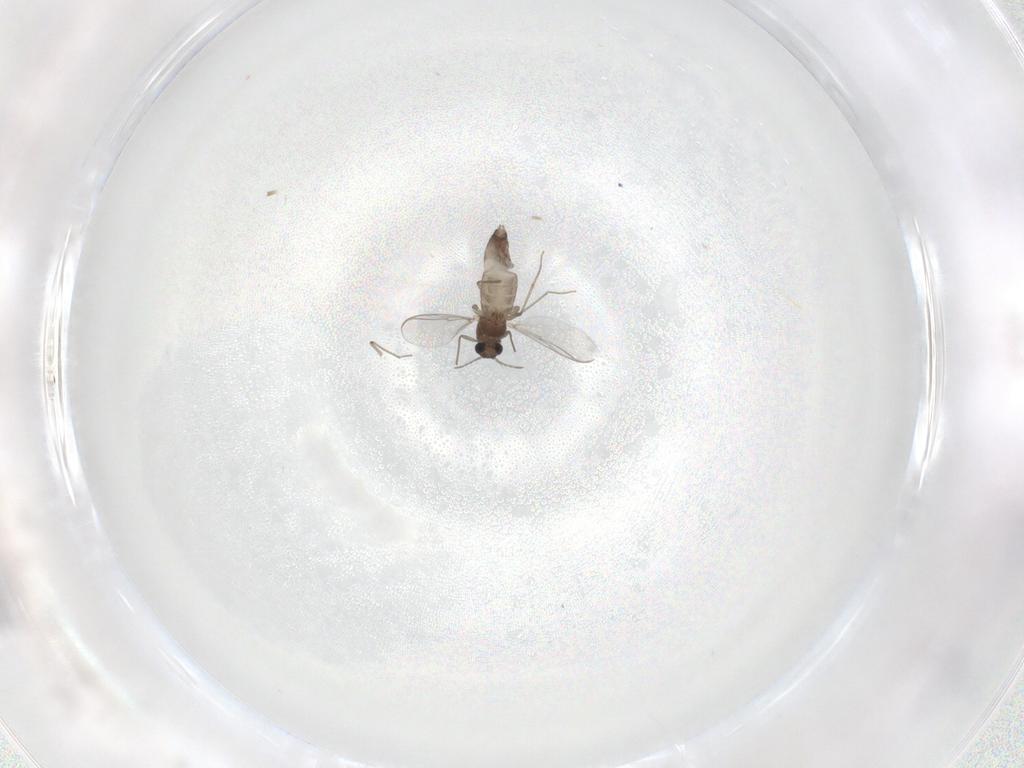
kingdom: Animalia
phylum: Arthropoda
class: Insecta
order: Diptera
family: Chironomidae
